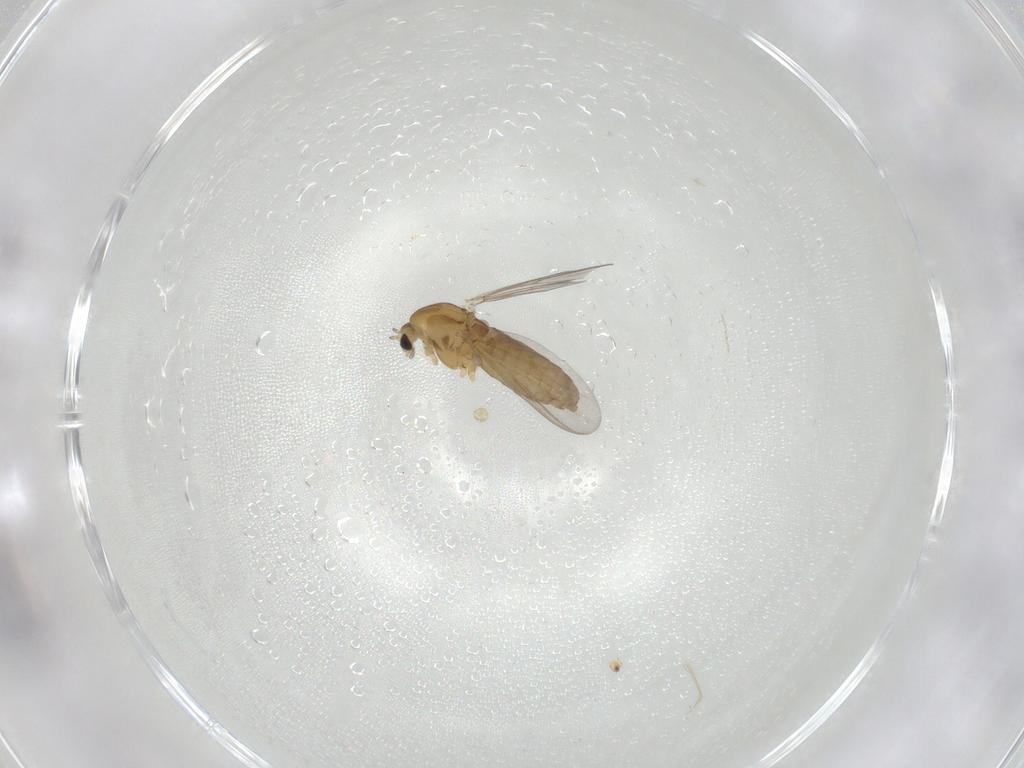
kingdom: Animalia
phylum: Arthropoda
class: Insecta
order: Diptera
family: Chironomidae
